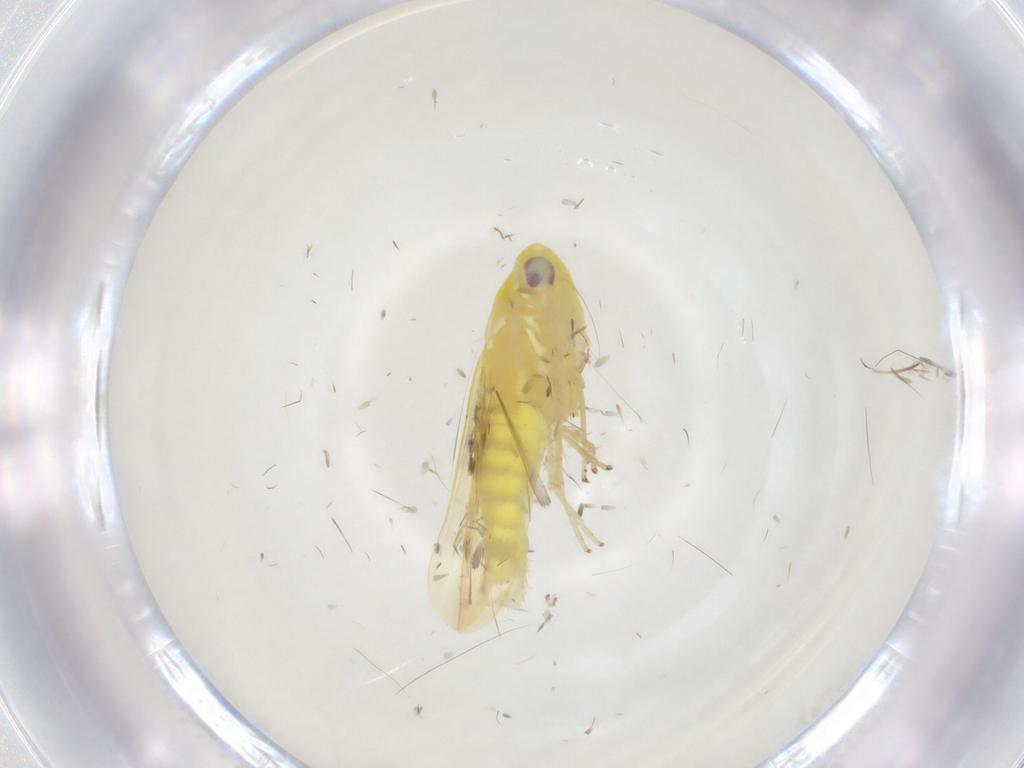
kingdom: Animalia
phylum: Arthropoda
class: Insecta
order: Hemiptera
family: Cicadellidae
